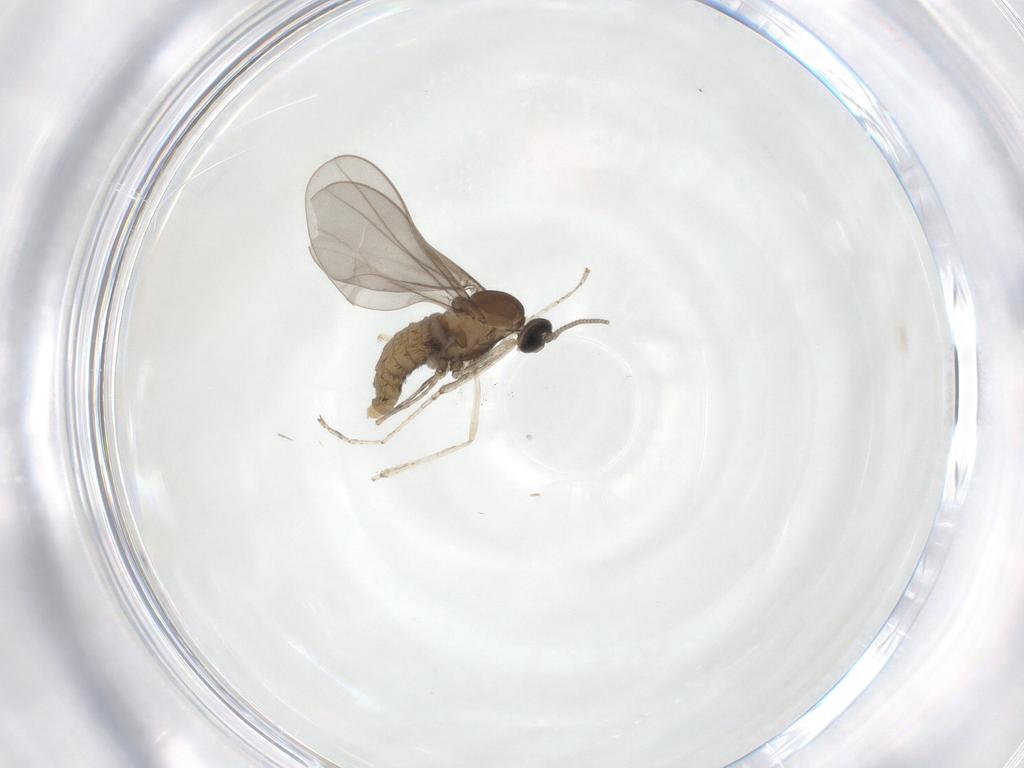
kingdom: Animalia
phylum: Arthropoda
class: Insecta
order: Diptera
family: Cecidomyiidae
